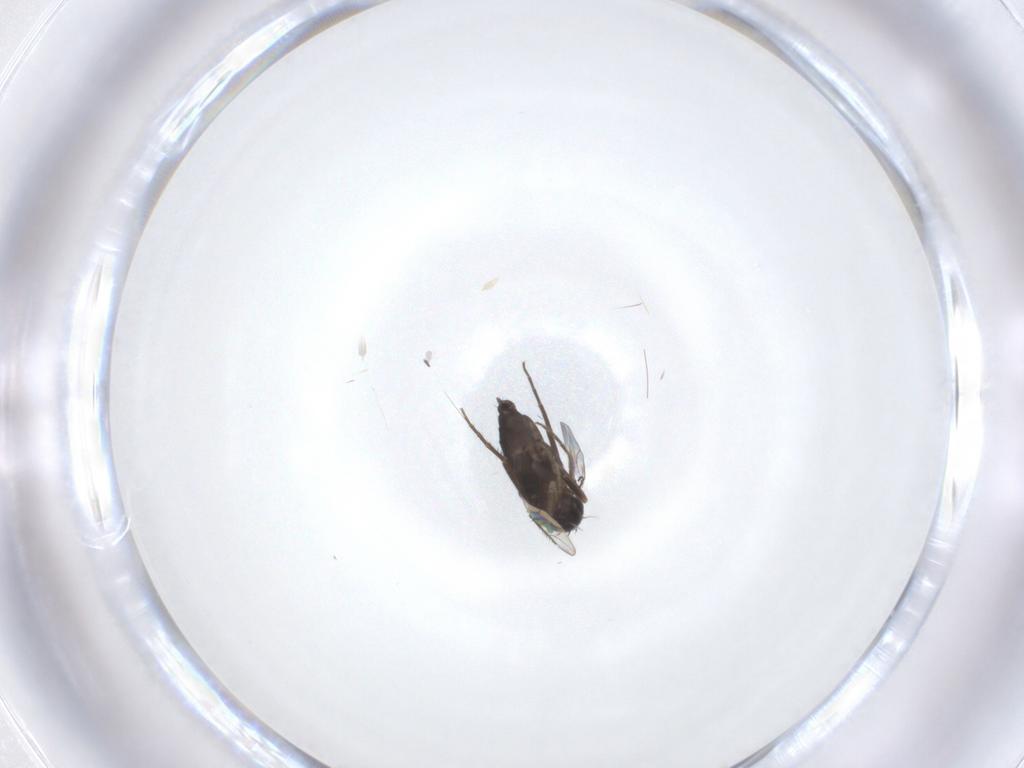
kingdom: Animalia
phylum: Arthropoda
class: Insecta
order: Diptera
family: Phoridae
